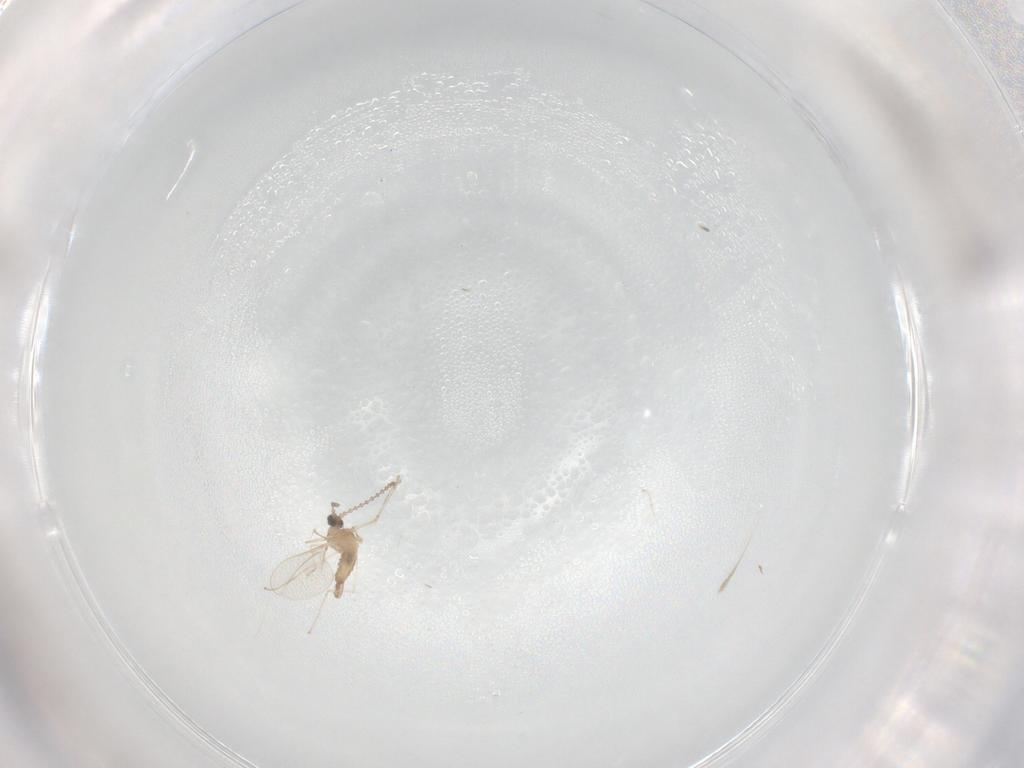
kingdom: Animalia
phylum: Arthropoda
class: Insecta
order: Diptera
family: Cecidomyiidae
